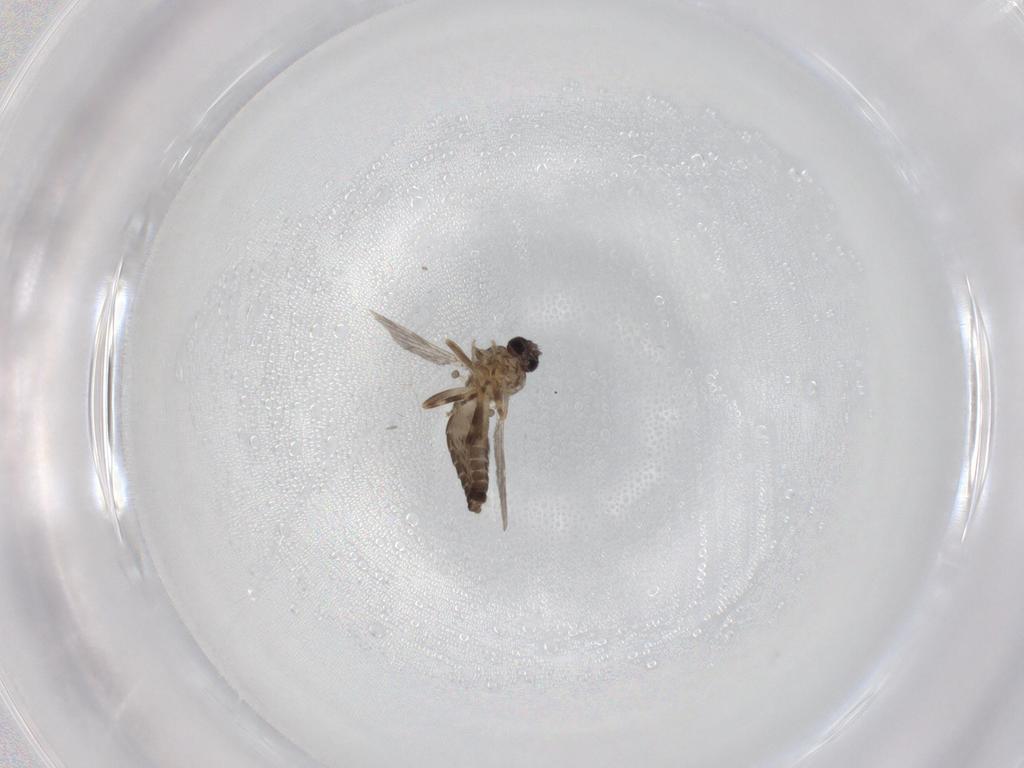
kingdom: Animalia
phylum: Arthropoda
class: Insecta
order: Diptera
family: Ceratopogonidae
